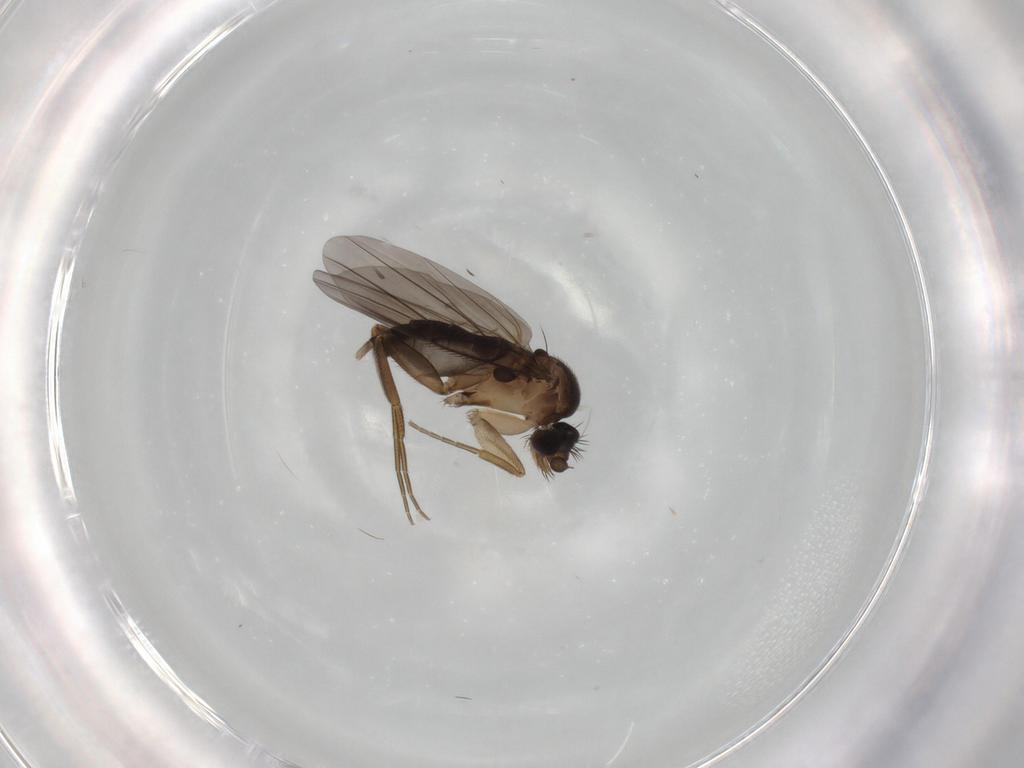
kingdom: Animalia
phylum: Arthropoda
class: Insecta
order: Diptera
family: Phoridae
